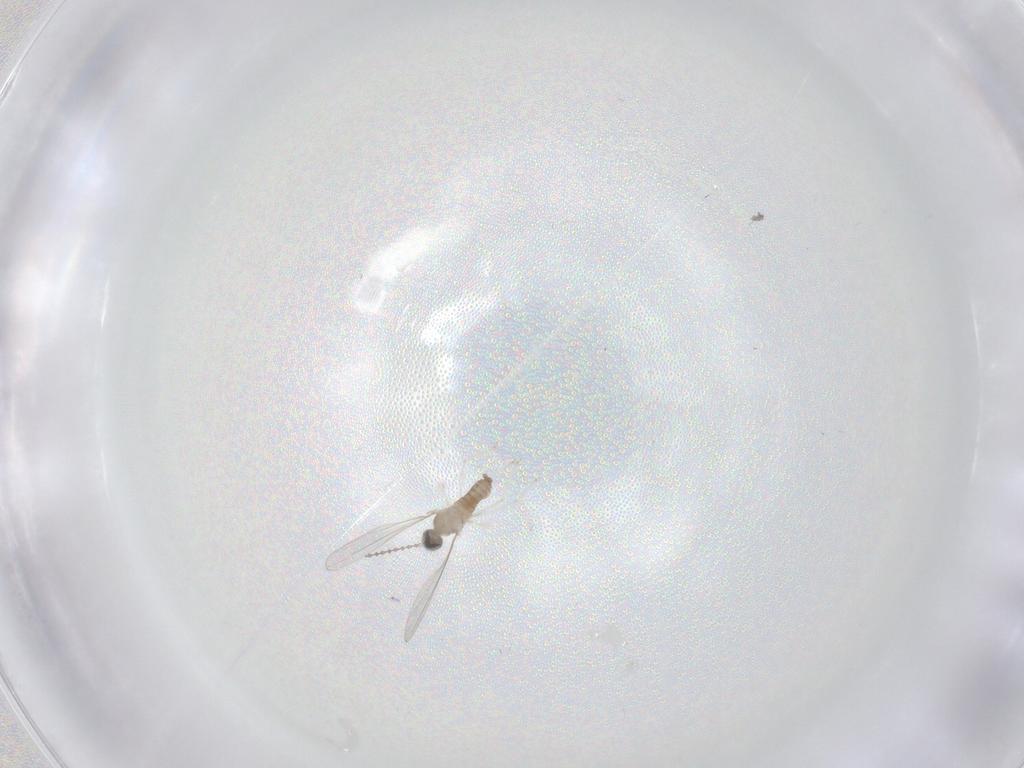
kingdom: Animalia
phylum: Arthropoda
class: Insecta
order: Diptera
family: Cecidomyiidae
